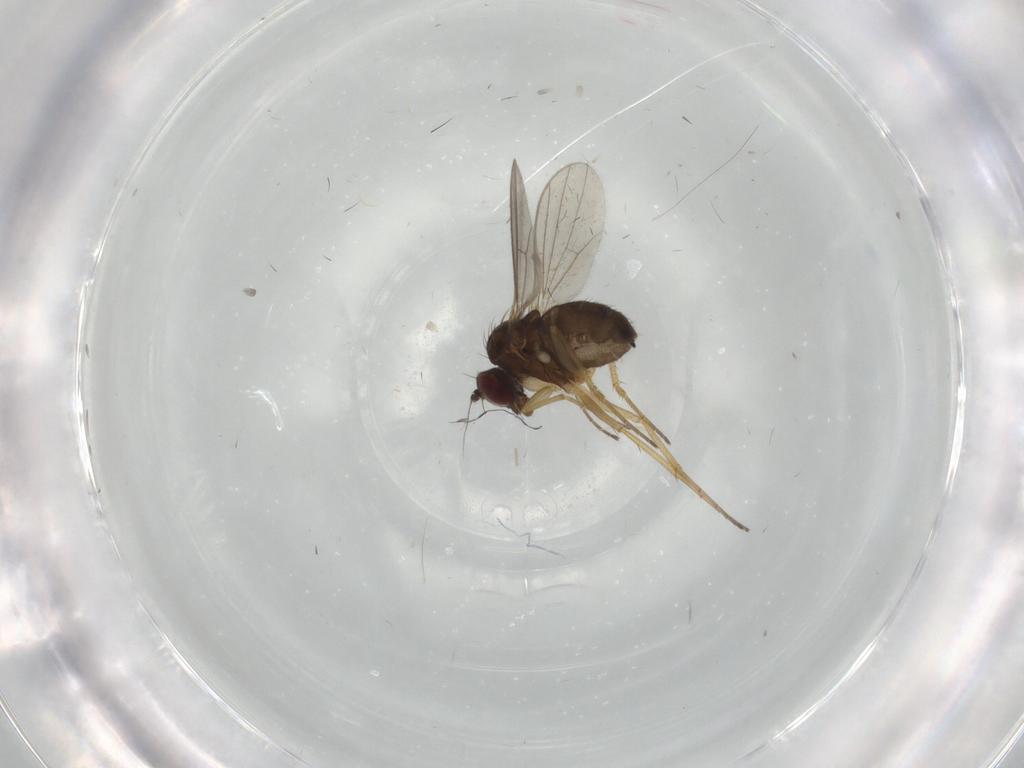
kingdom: Animalia
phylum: Arthropoda
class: Insecta
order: Diptera
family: Dolichopodidae
